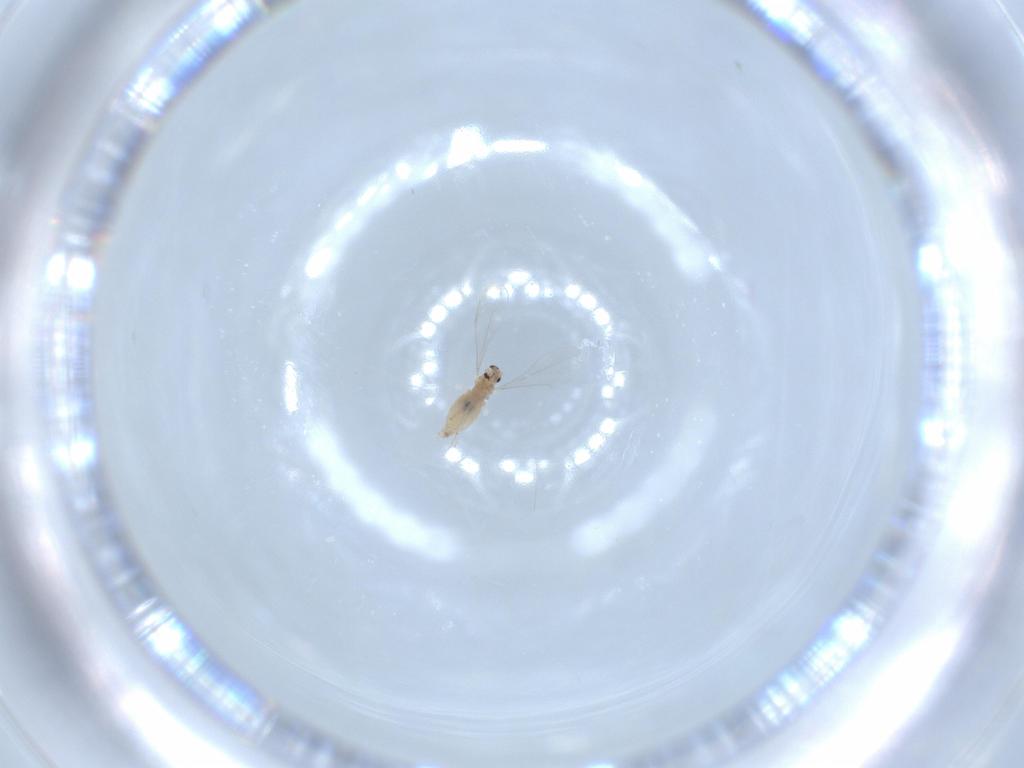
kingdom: Animalia
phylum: Arthropoda
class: Insecta
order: Diptera
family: Cecidomyiidae
